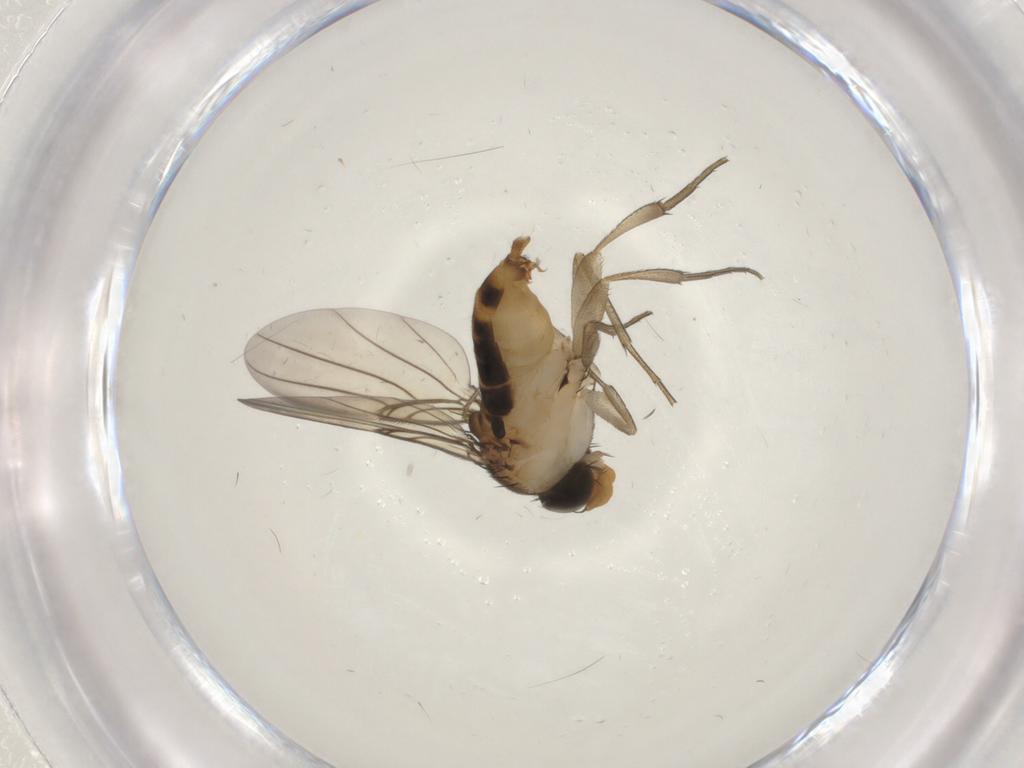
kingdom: Animalia
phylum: Arthropoda
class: Insecta
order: Diptera
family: Phoridae
